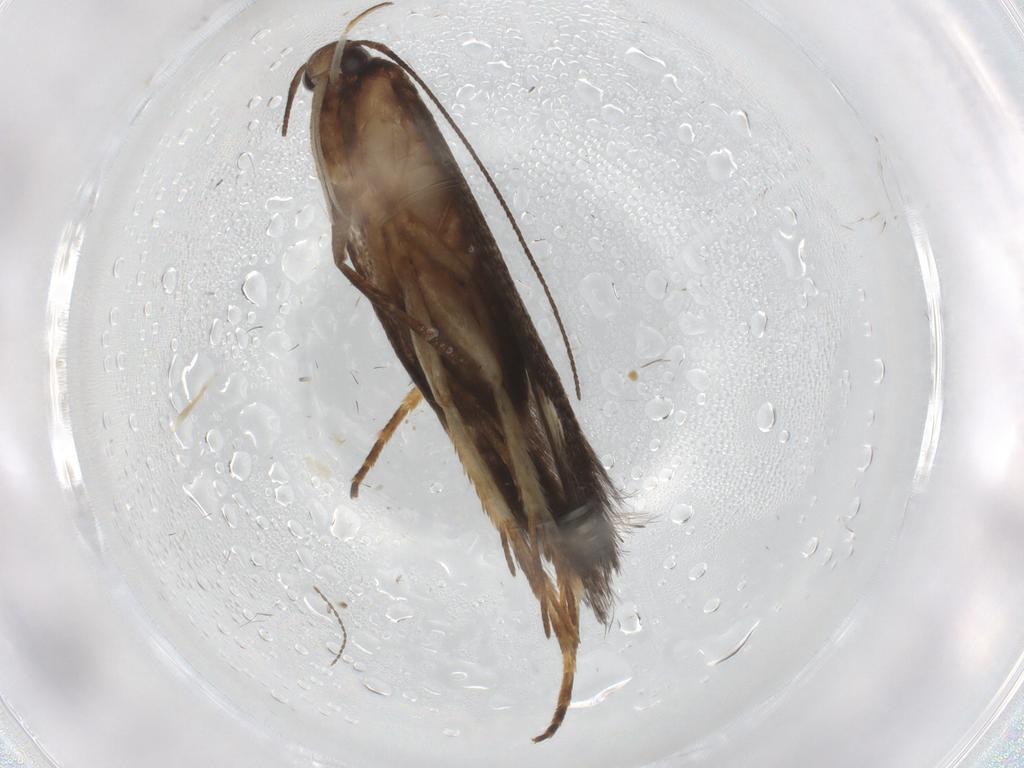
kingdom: Animalia
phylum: Arthropoda
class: Insecta
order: Lepidoptera
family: Gelechiidae
